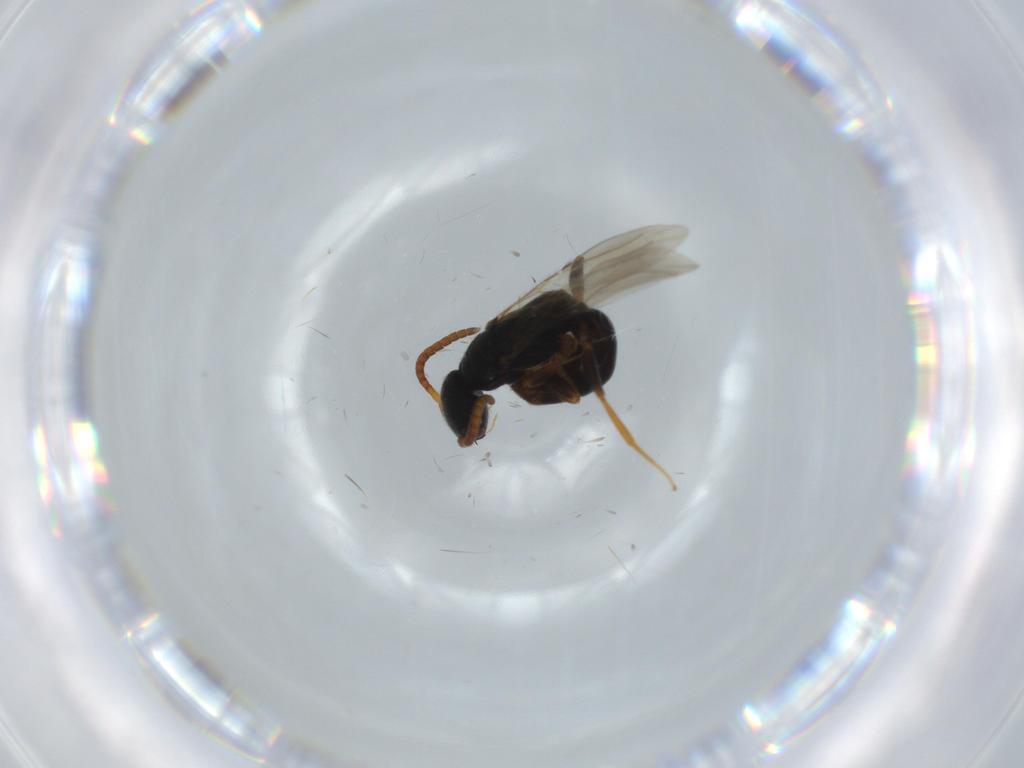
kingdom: Animalia
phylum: Arthropoda
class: Insecta
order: Hymenoptera
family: Bethylidae
